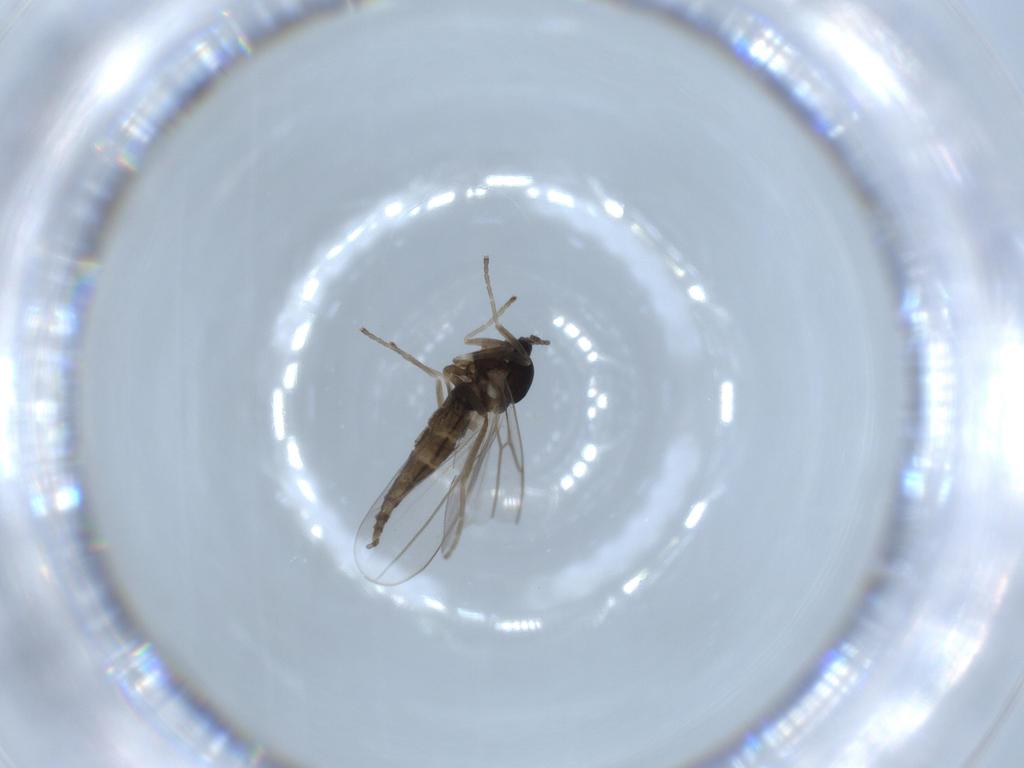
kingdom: Animalia
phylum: Arthropoda
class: Insecta
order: Diptera
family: Cecidomyiidae
